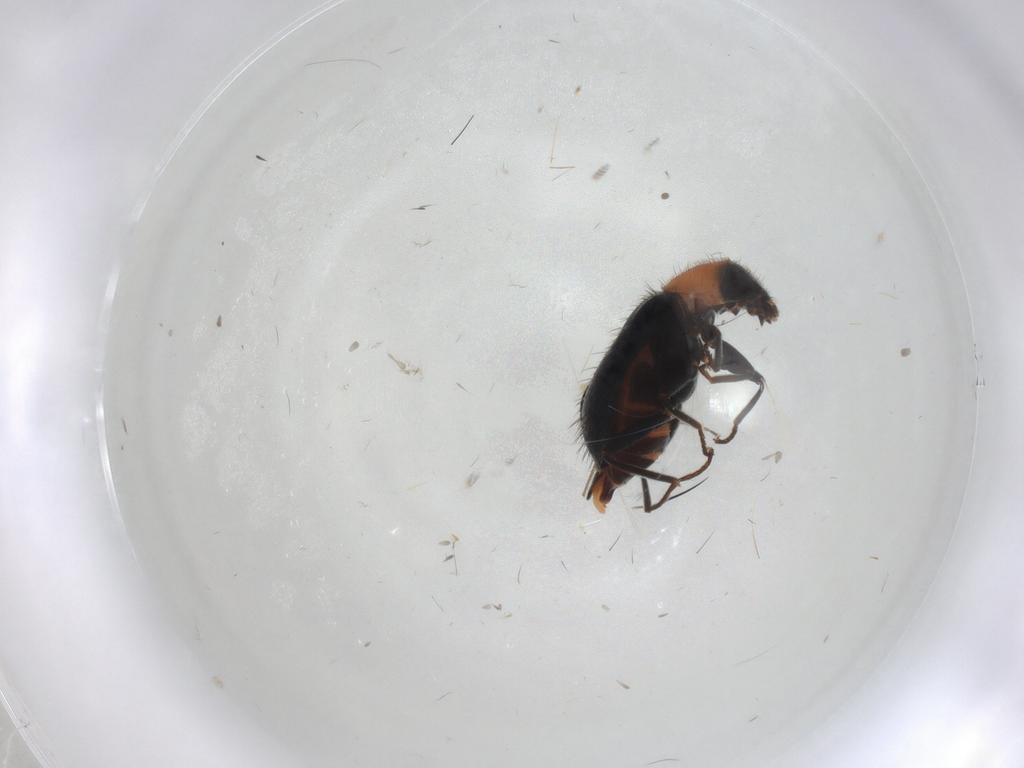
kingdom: Animalia
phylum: Arthropoda
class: Insecta
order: Coleoptera
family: Melyridae
